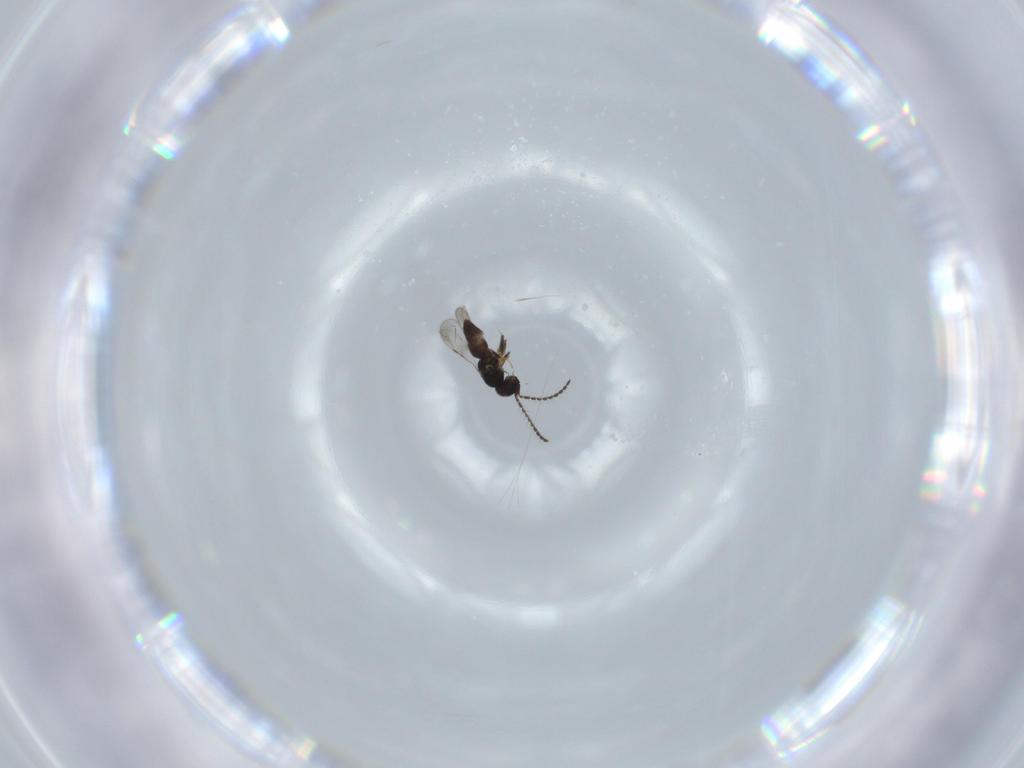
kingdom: Animalia
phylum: Arthropoda
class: Insecta
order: Hymenoptera
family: Ceraphronidae
